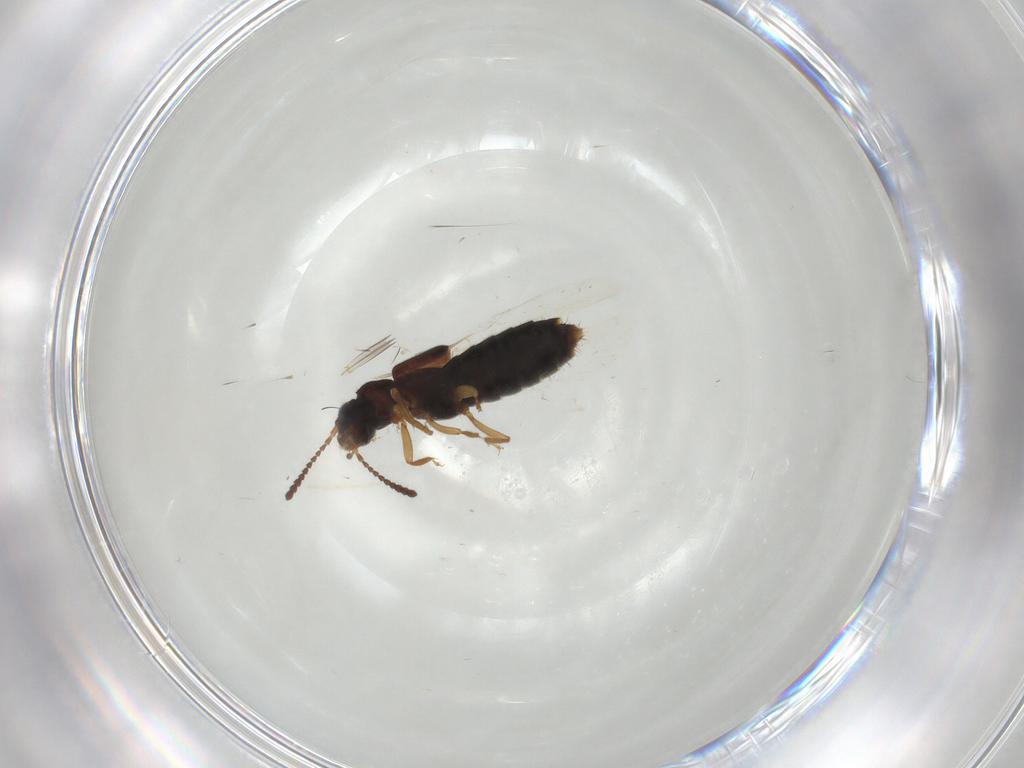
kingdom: Animalia
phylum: Arthropoda
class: Insecta
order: Coleoptera
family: Staphylinidae
